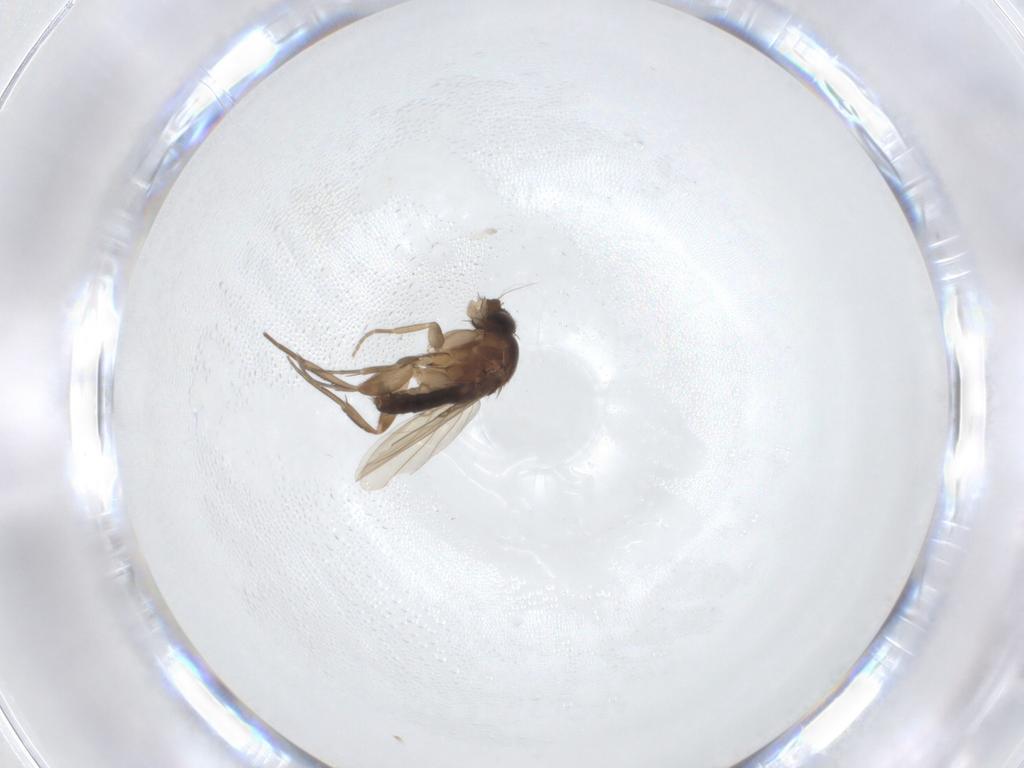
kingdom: Animalia
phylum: Arthropoda
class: Insecta
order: Diptera
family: Phoridae
